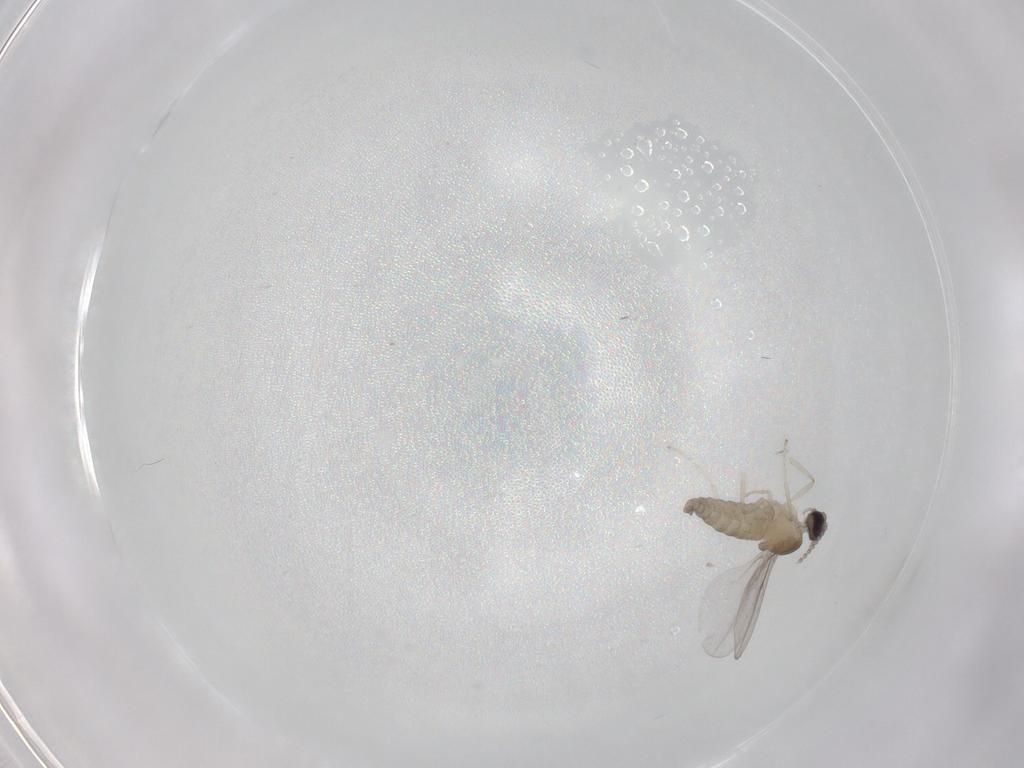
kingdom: Animalia
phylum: Arthropoda
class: Insecta
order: Diptera
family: Cecidomyiidae
